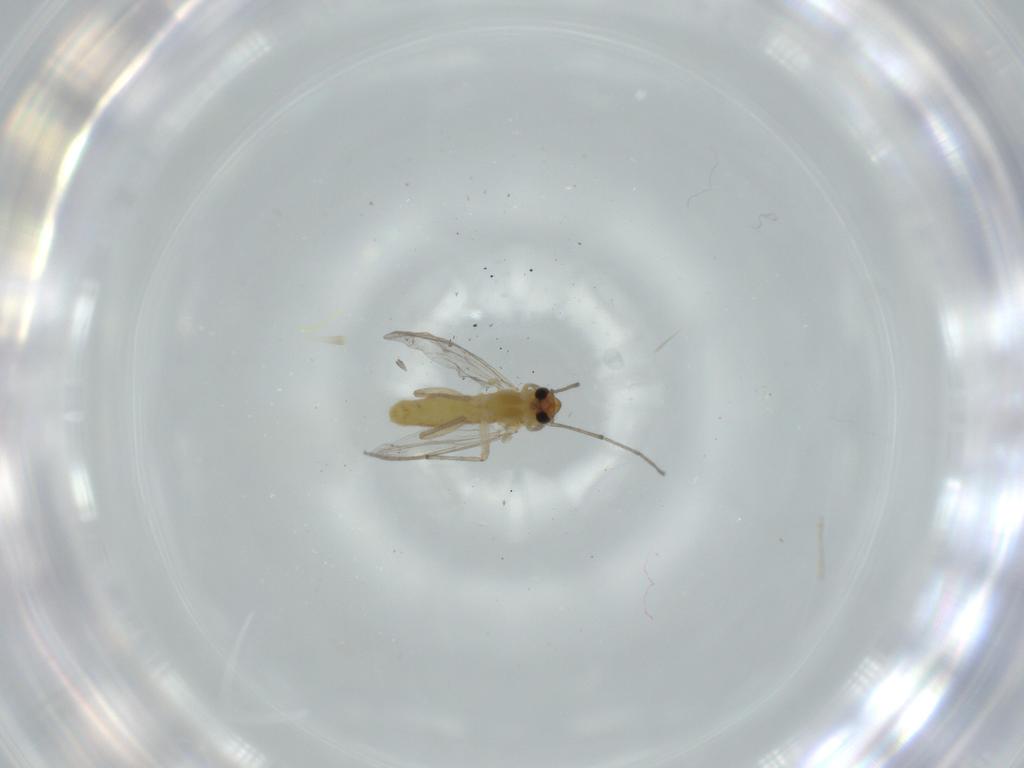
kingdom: Animalia
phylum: Arthropoda
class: Insecta
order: Diptera
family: Chironomidae
